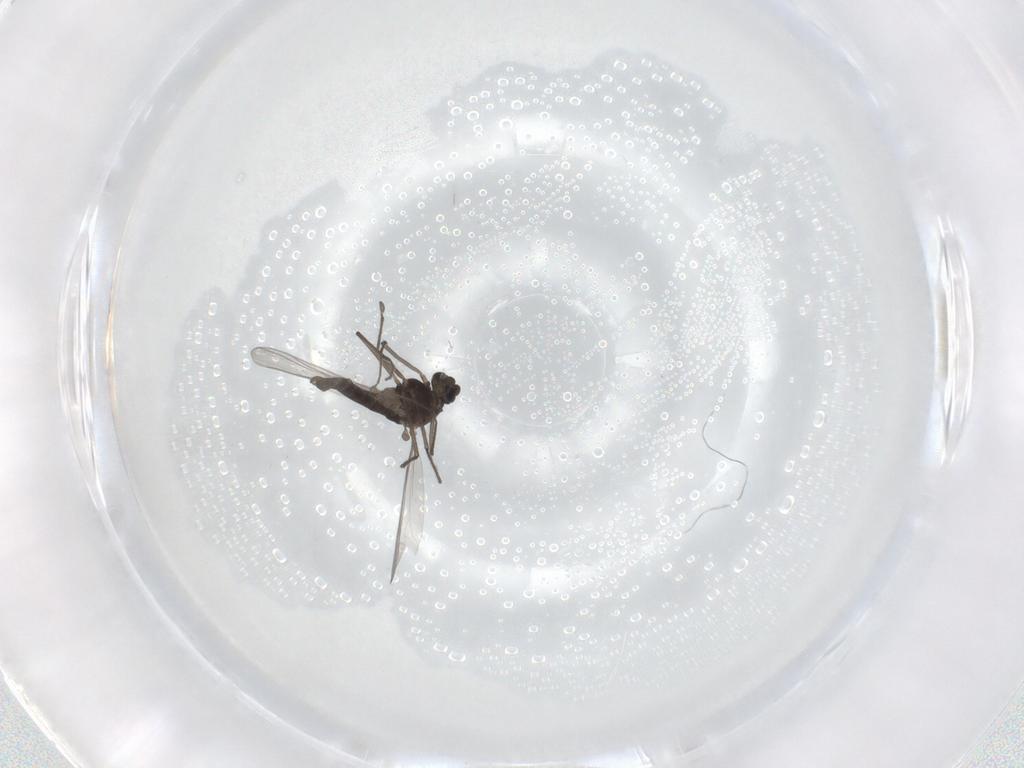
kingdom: Animalia
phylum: Arthropoda
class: Insecta
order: Diptera
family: Chironomidae
